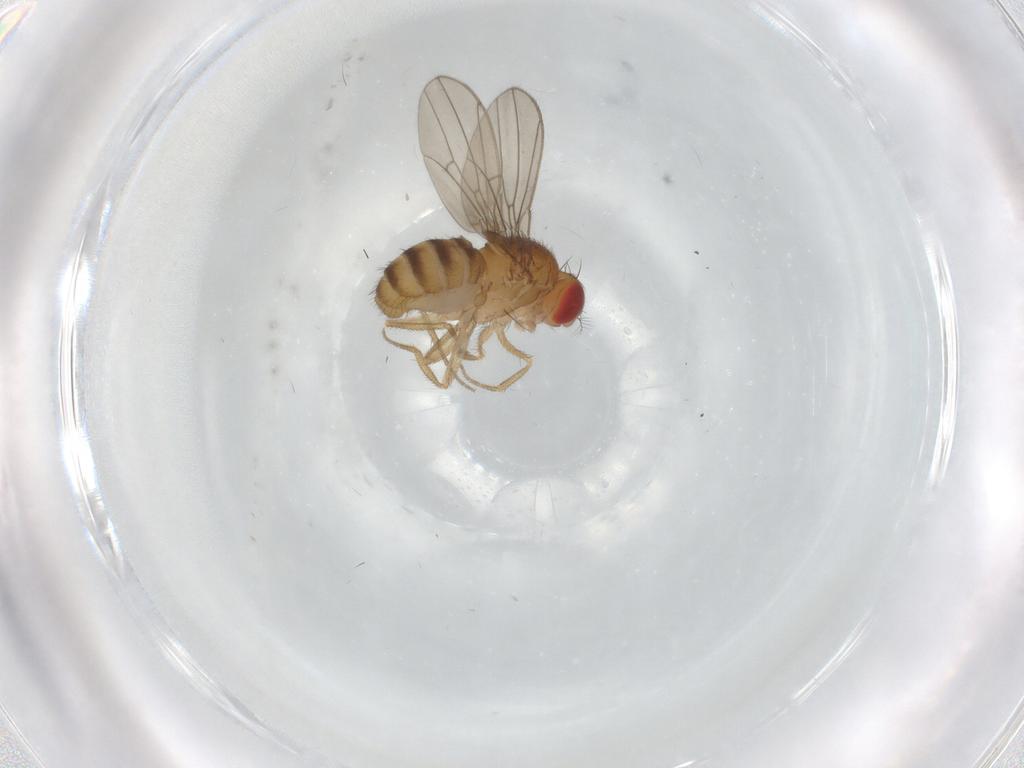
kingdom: Animalia
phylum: Arthropoda
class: Insecta
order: Diptera
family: Drosophilidae
